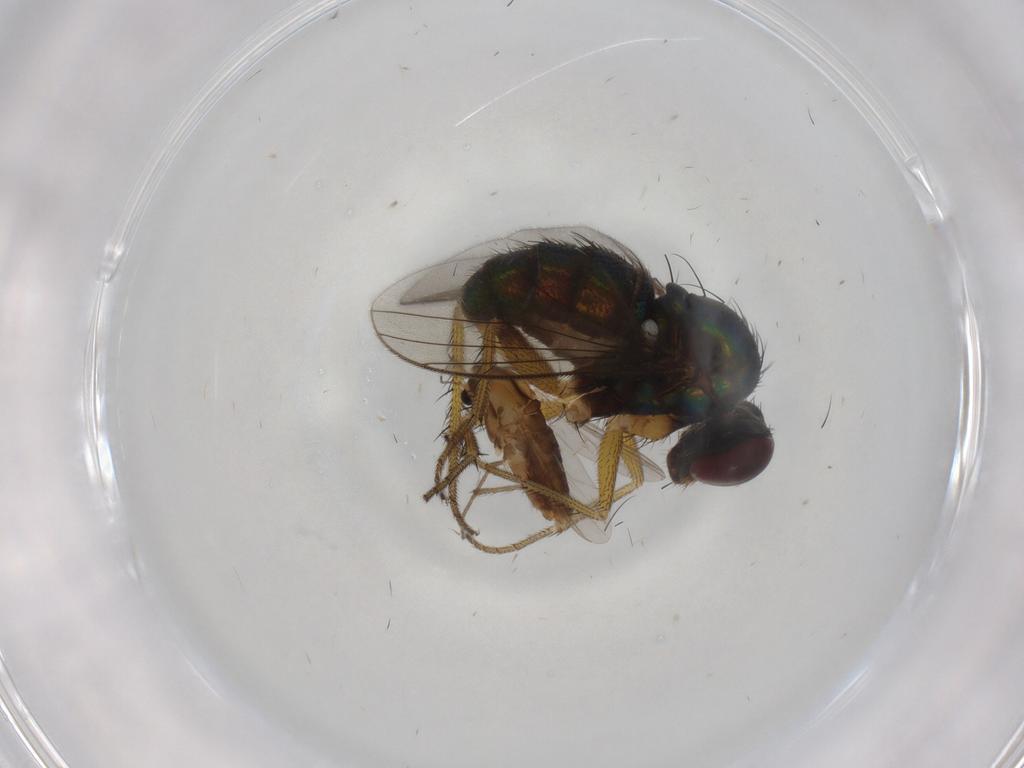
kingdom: Animalia
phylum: Arthropoda
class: Insecta
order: Diptera
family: Dolichopodidae
